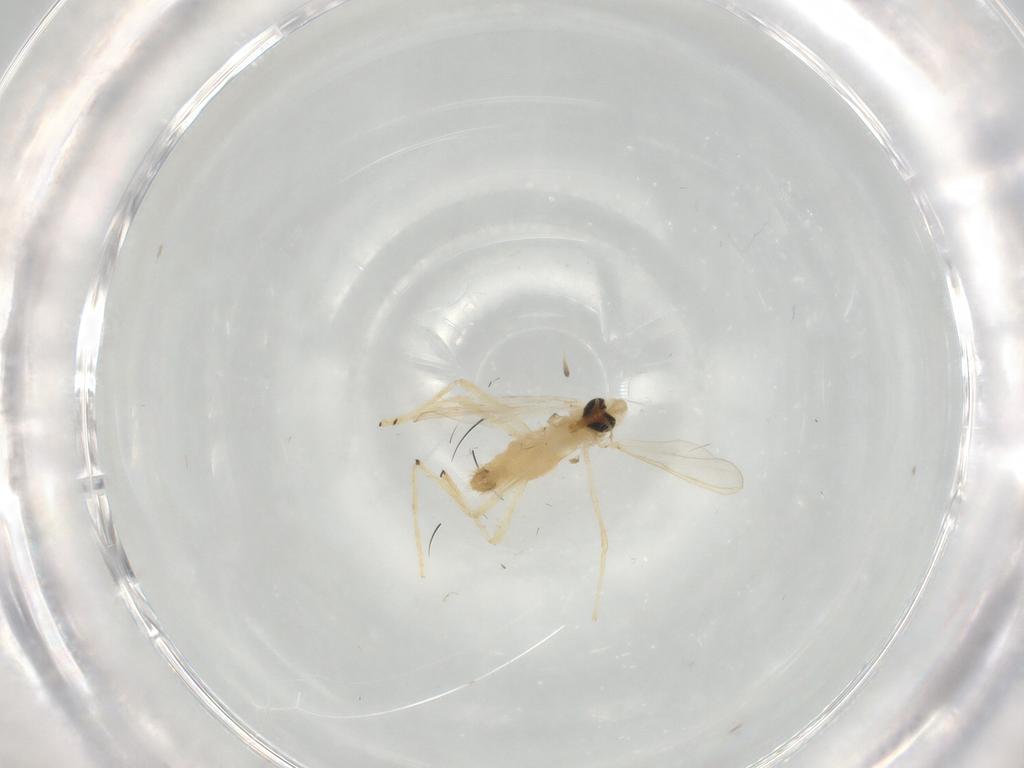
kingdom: Animalia
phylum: Arthropoda
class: Insecta
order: Diptera
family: Chironomidae
